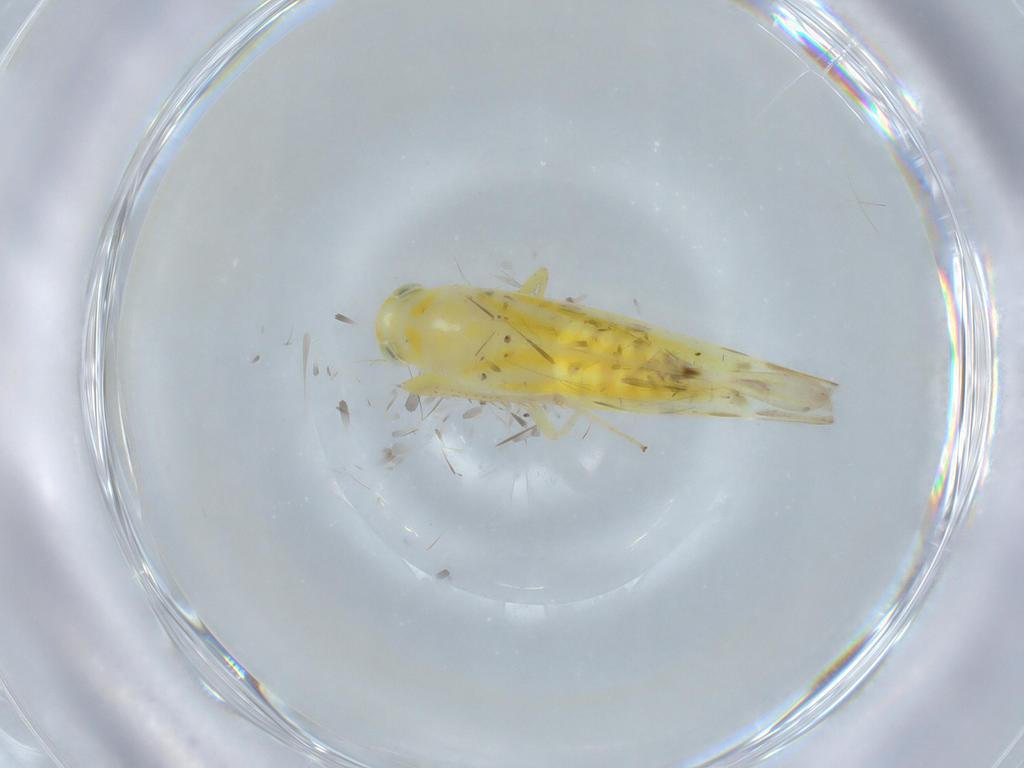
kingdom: Animalia
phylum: Arthropoda
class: Insecta
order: Hemiptera
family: Cicadellidae
